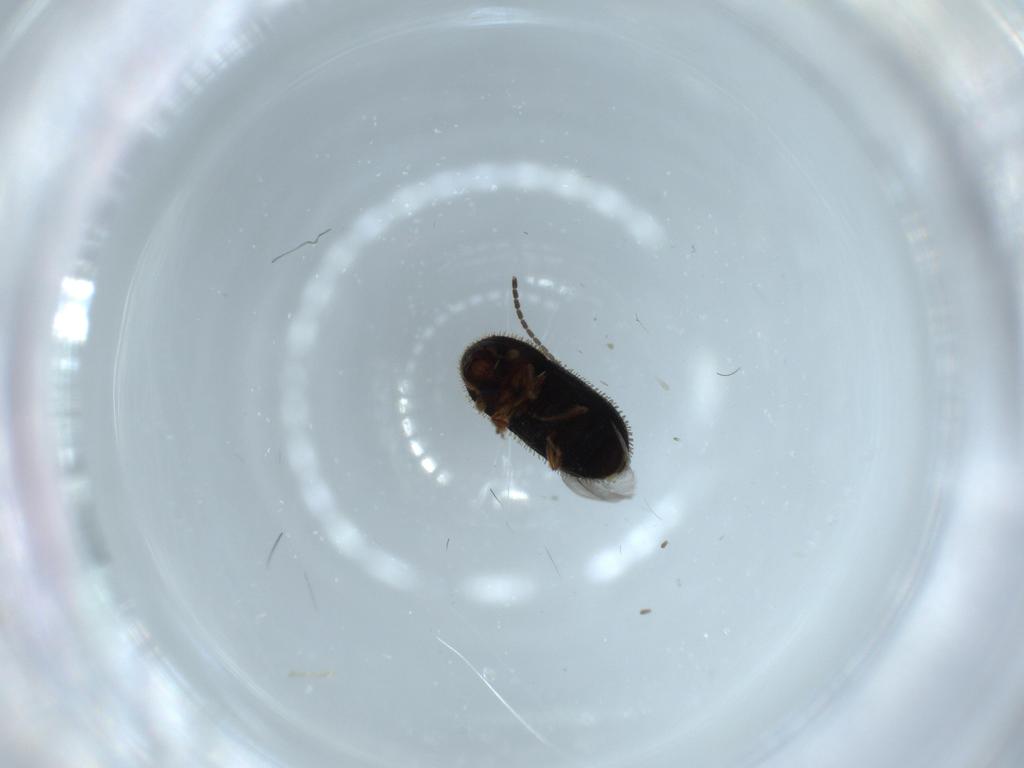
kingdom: Animalia
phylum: Arthropoda
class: Insecta
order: Coleoptera
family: Curculionidae
